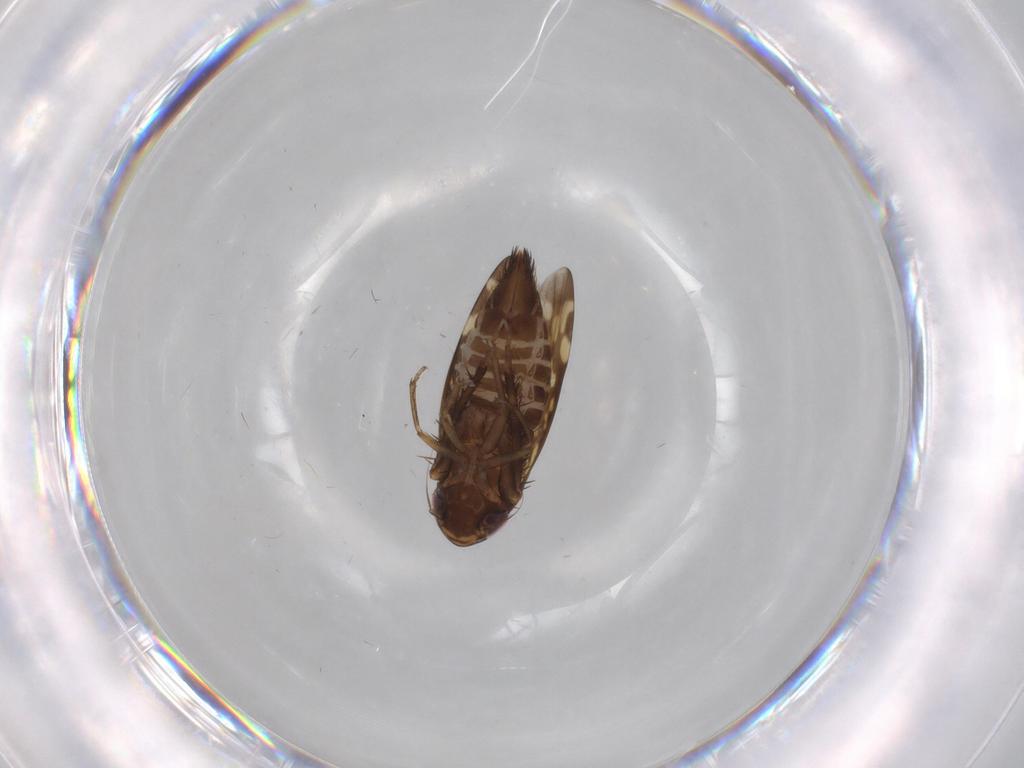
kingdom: Animalia
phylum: Arthropoda
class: Insecta
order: Hemiptera
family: Cicadellidae
